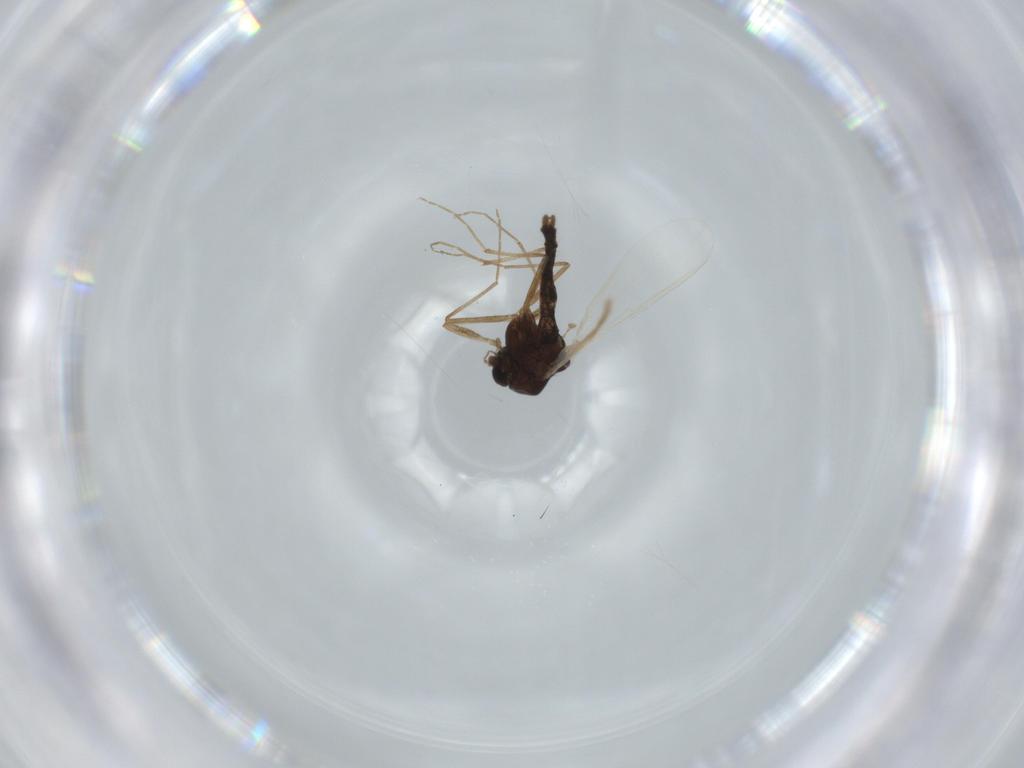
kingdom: Animalia
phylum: Arthropoda
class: Insecta
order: Diptera
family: Chironomidae
